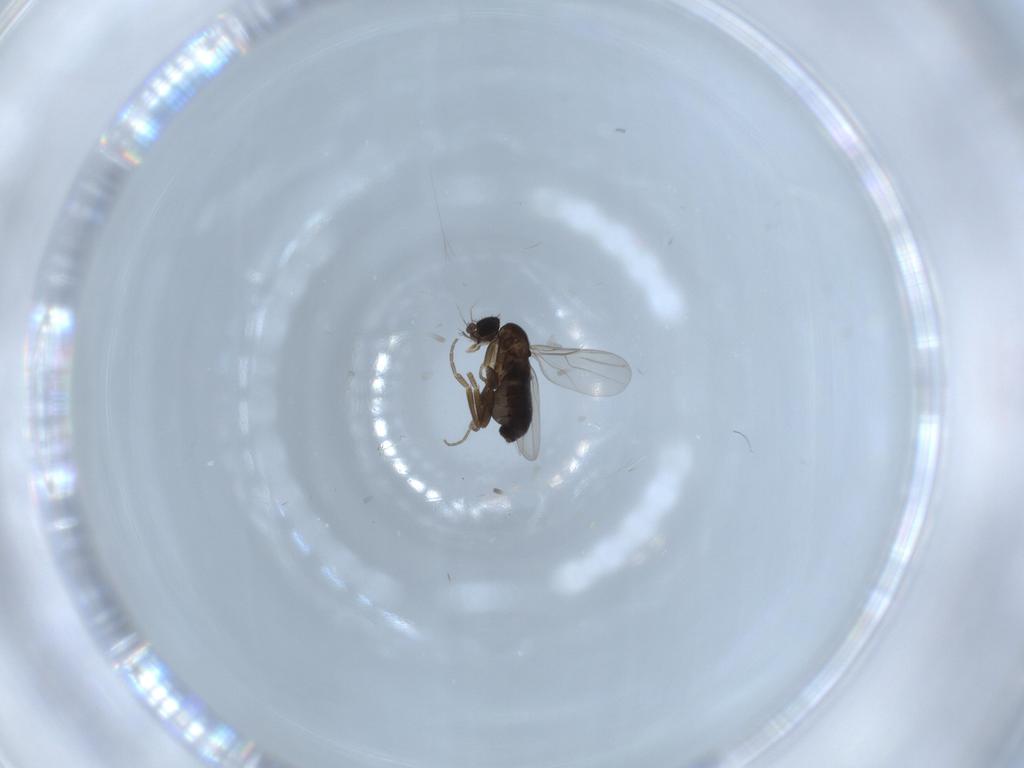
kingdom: Animalia
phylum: Arthropoda
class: Insecta
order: Diptera
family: Phoridae
